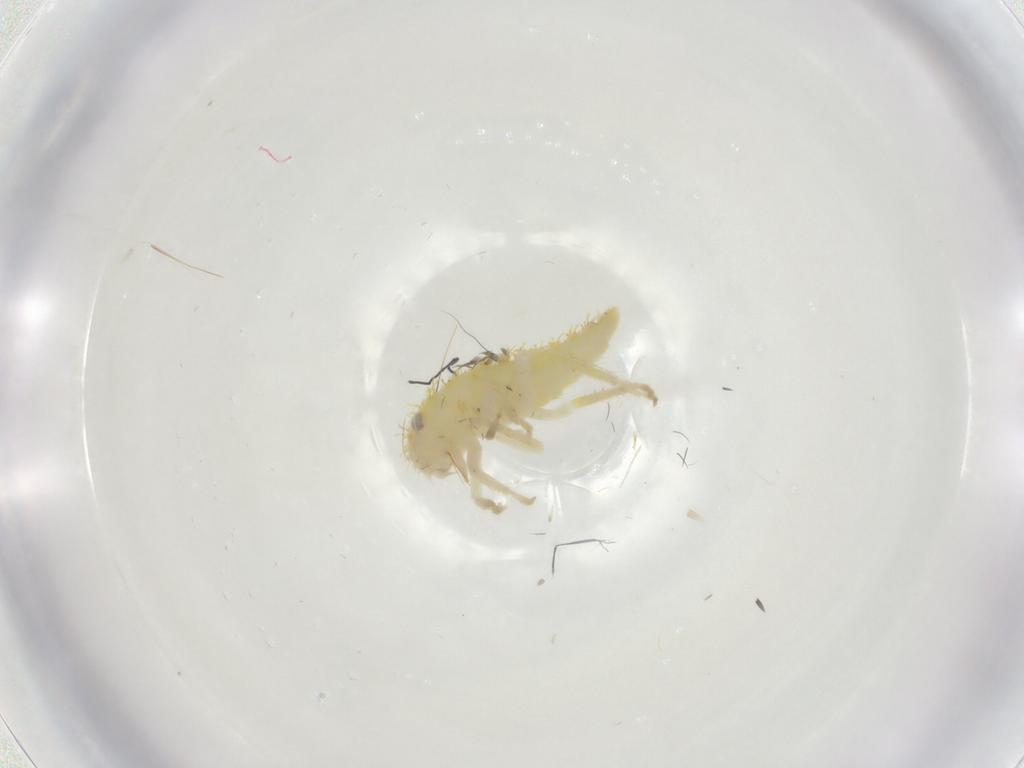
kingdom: Animalia
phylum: Arthropoda
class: Insecta
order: Hemiptera
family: Cicadellidae
